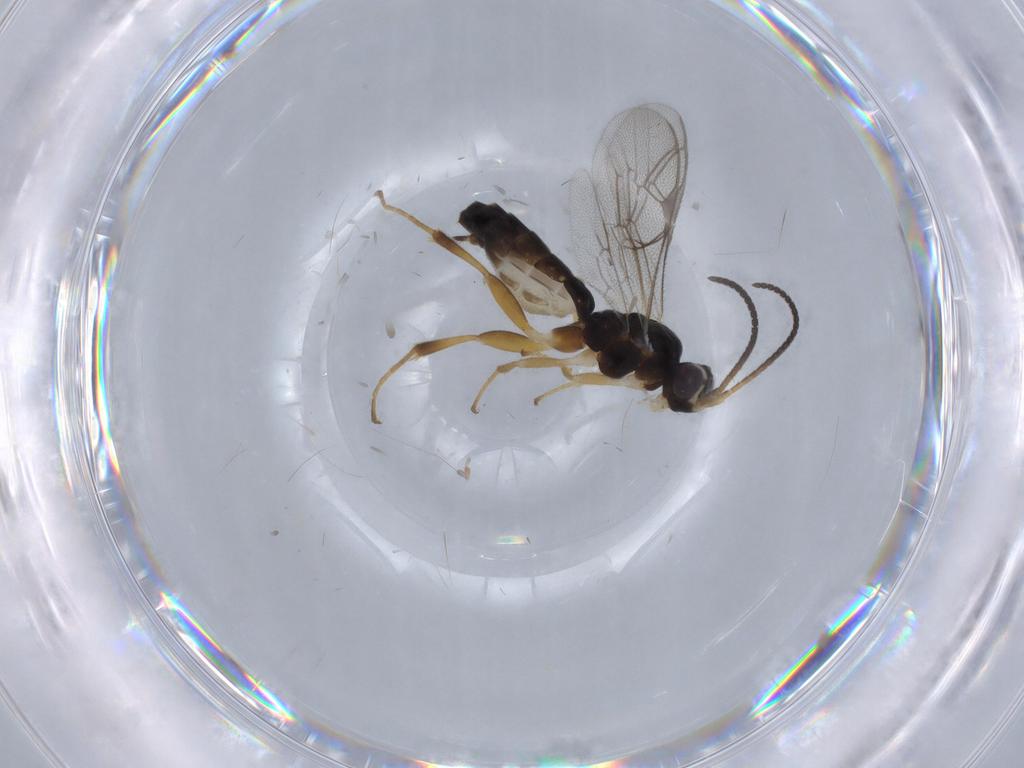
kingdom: Animalia
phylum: Arthropoda
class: Insecta
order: Hymenoptera
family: Ichneumonidae
